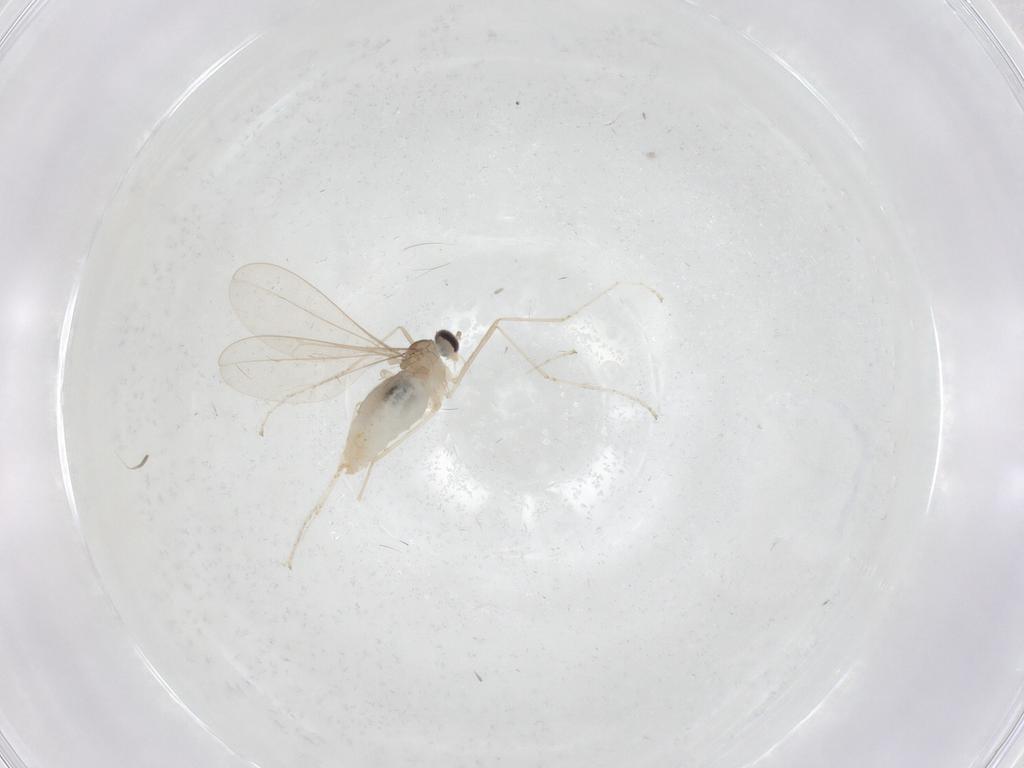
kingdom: Animalia
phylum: Arthropoda
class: Insecta
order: Diptera
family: Cecidomyiidae
